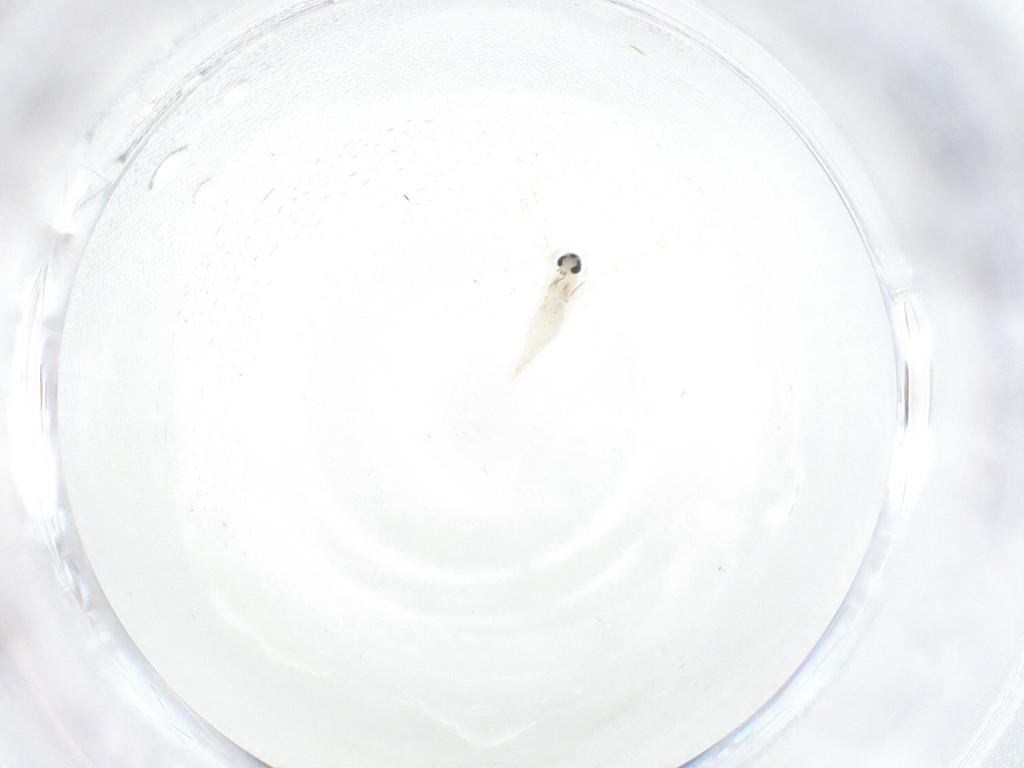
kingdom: Animalia
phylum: Arthropoda
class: Insecta
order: Diptera
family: Cecidomyiidae
